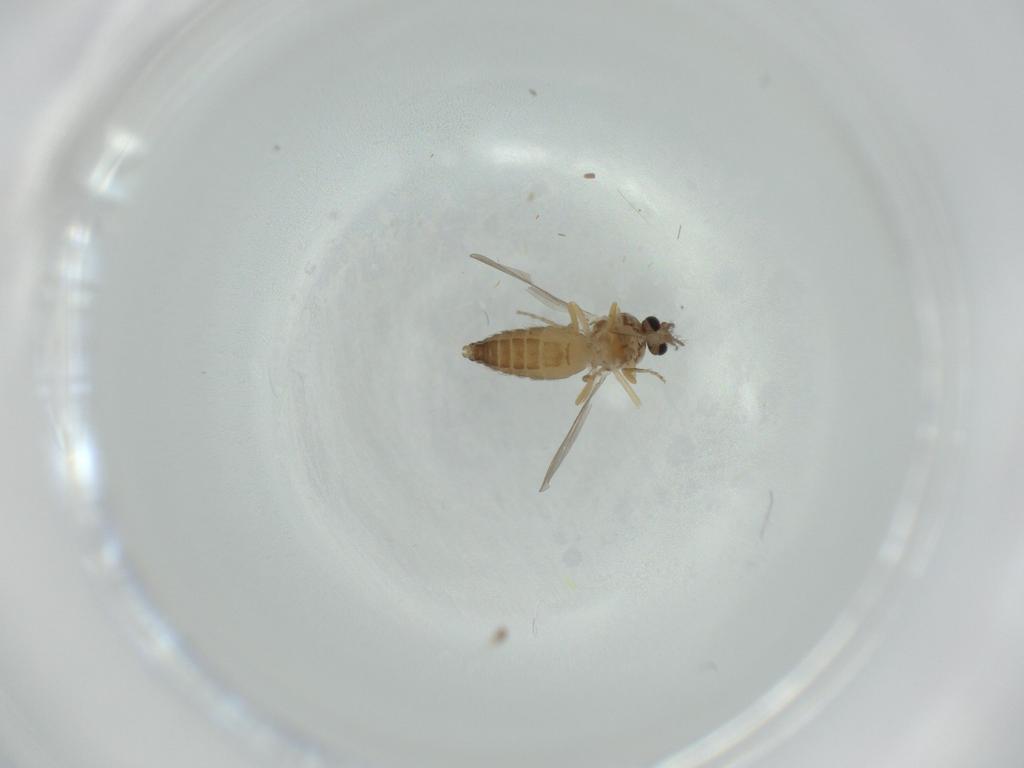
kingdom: Animalia
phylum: Arthropoda
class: Insecta
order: Diptera
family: Ceratopogonidae
